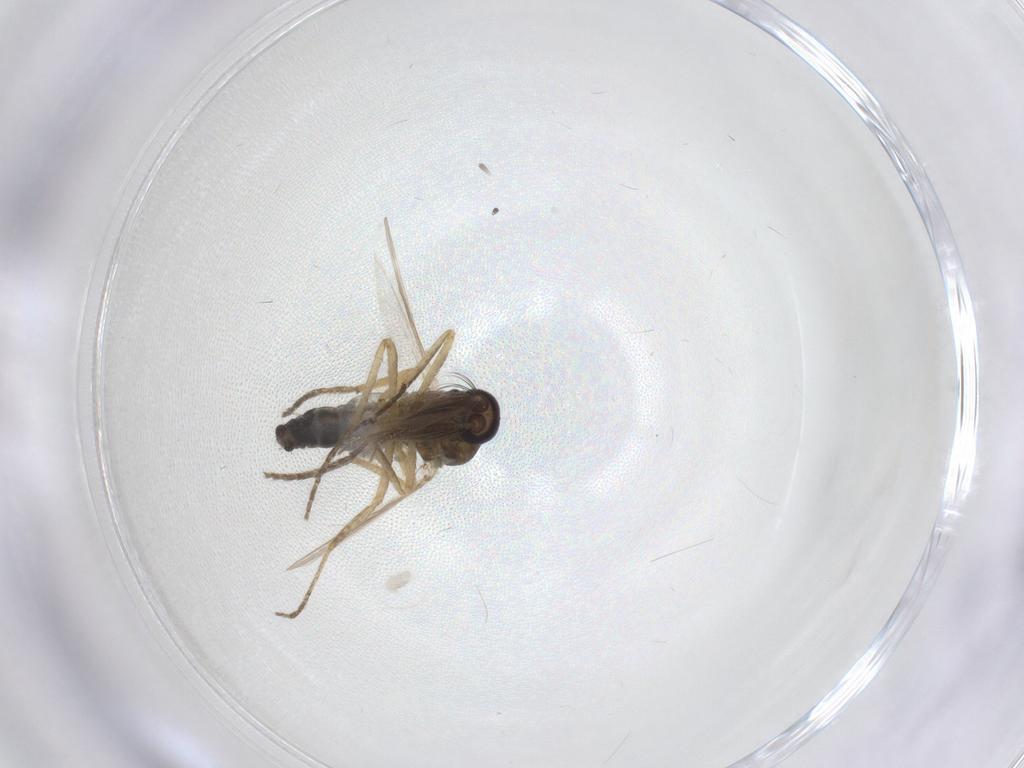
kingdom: Animalia
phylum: Arthropoda
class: Insecta
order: Diptera
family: Ceratopogonidae
